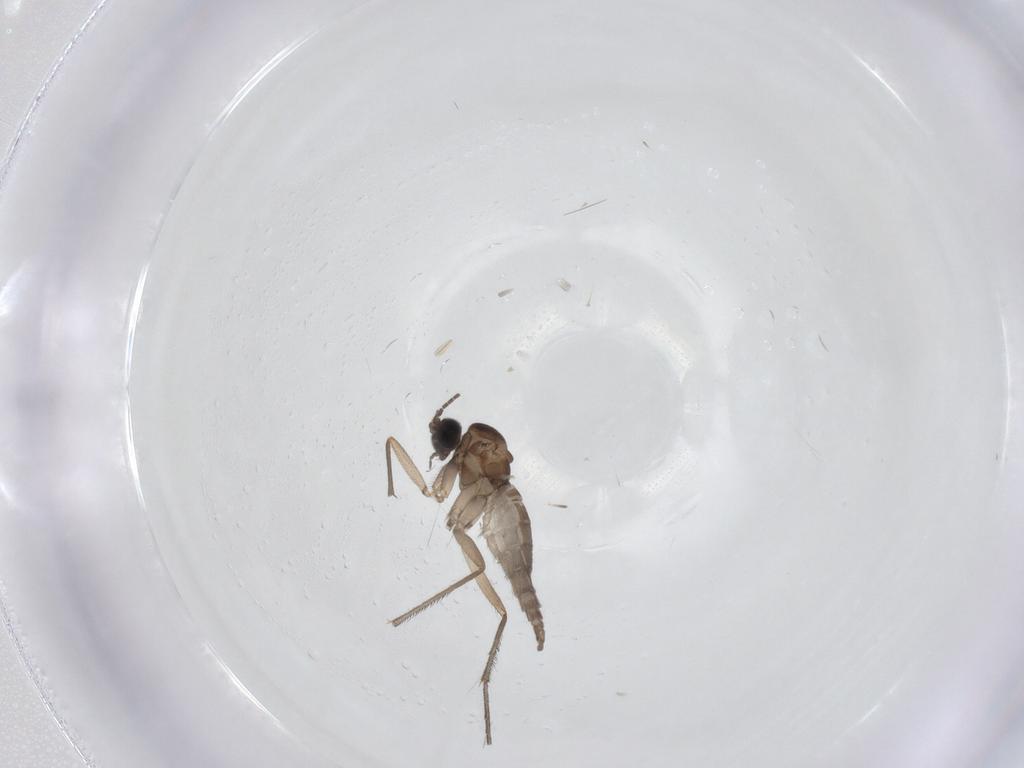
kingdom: Animalia
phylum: Arthropoda
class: Insecta
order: Diptera
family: Sciaridae
